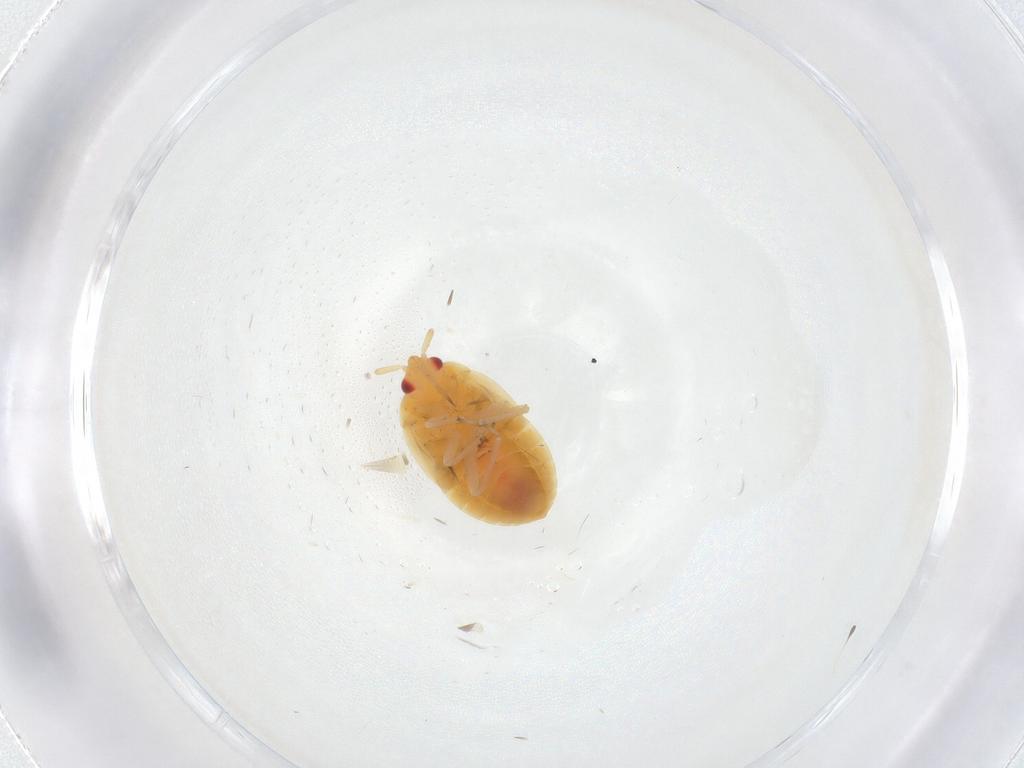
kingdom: Animalia
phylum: Arthropoda
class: Insecta
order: Hemiptera
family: Anthocoridae
